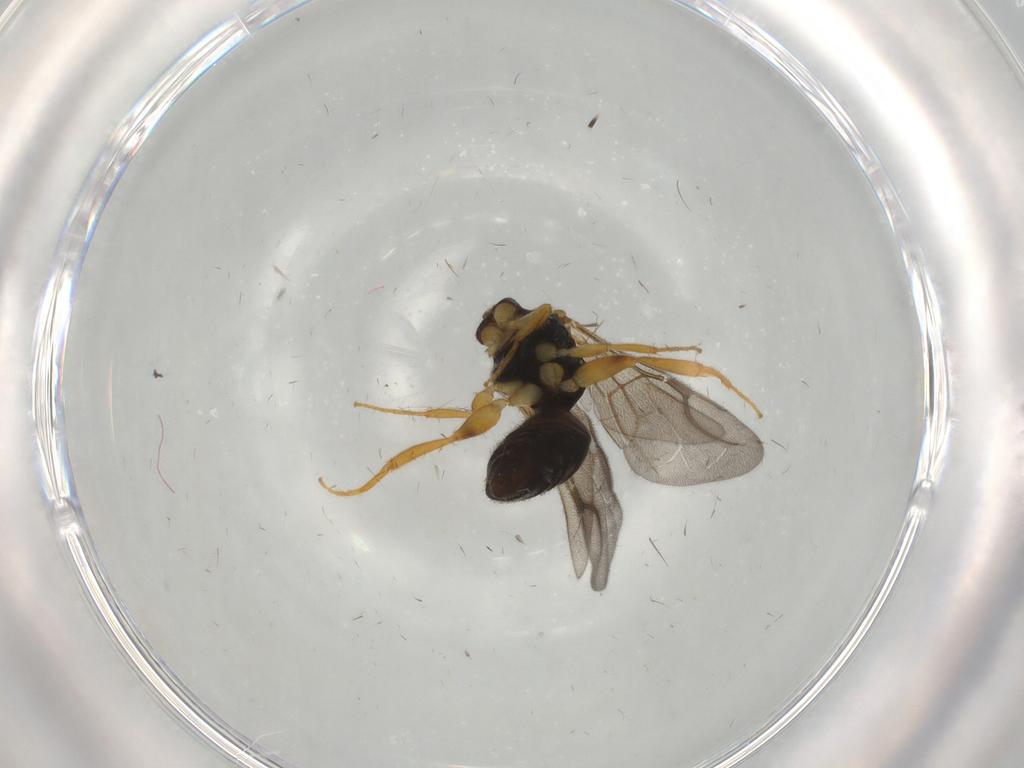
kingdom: Animalia
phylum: Arthropoda
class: Insecta
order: Hymenoptera
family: Bethylidae
